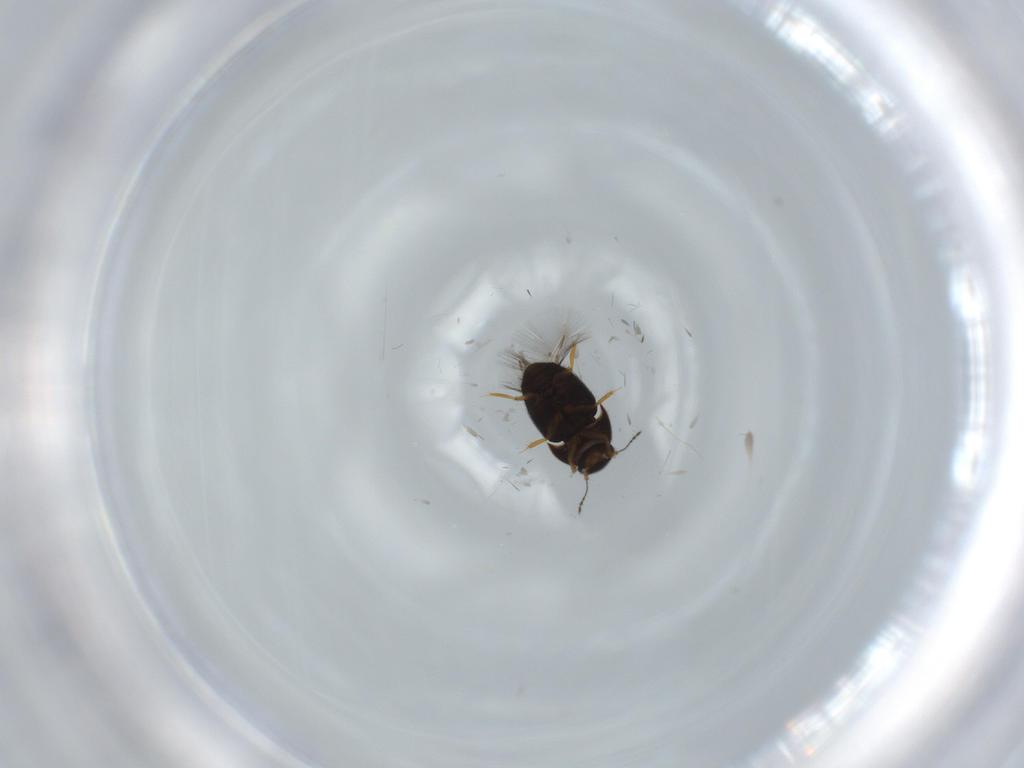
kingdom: Animalia
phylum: Arthropoda
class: Insecta
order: Coleoptera
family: Chrysomelidae
